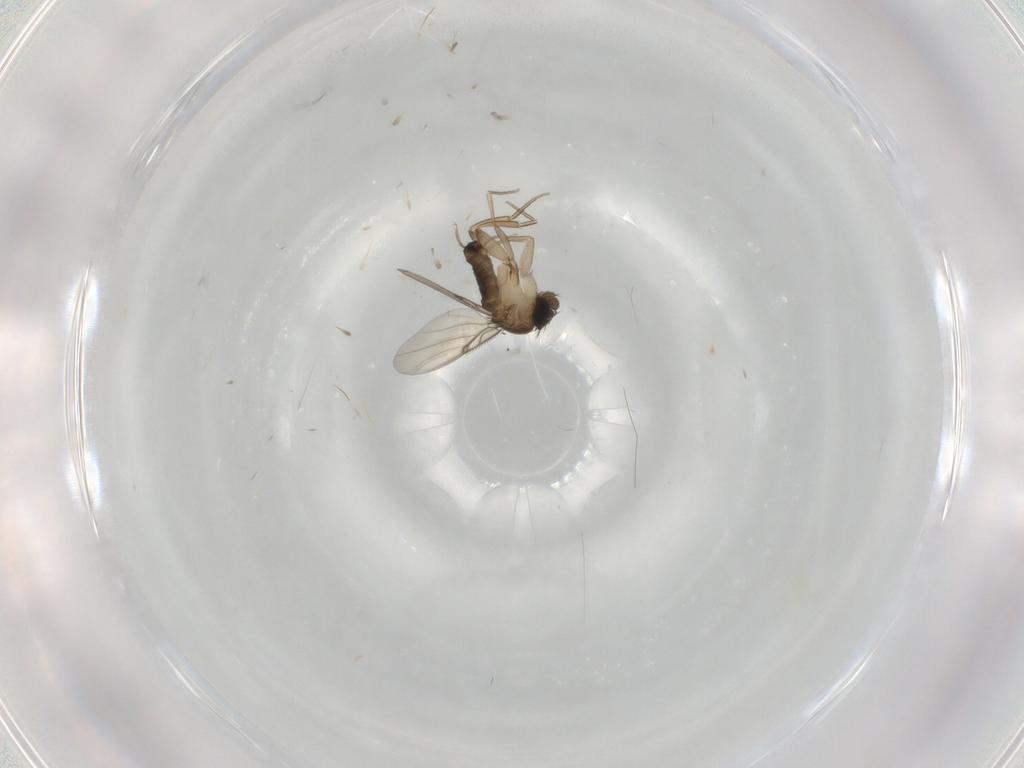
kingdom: Animalia
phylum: Arthropoda
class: Insecta
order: Diptera
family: Phoridae
